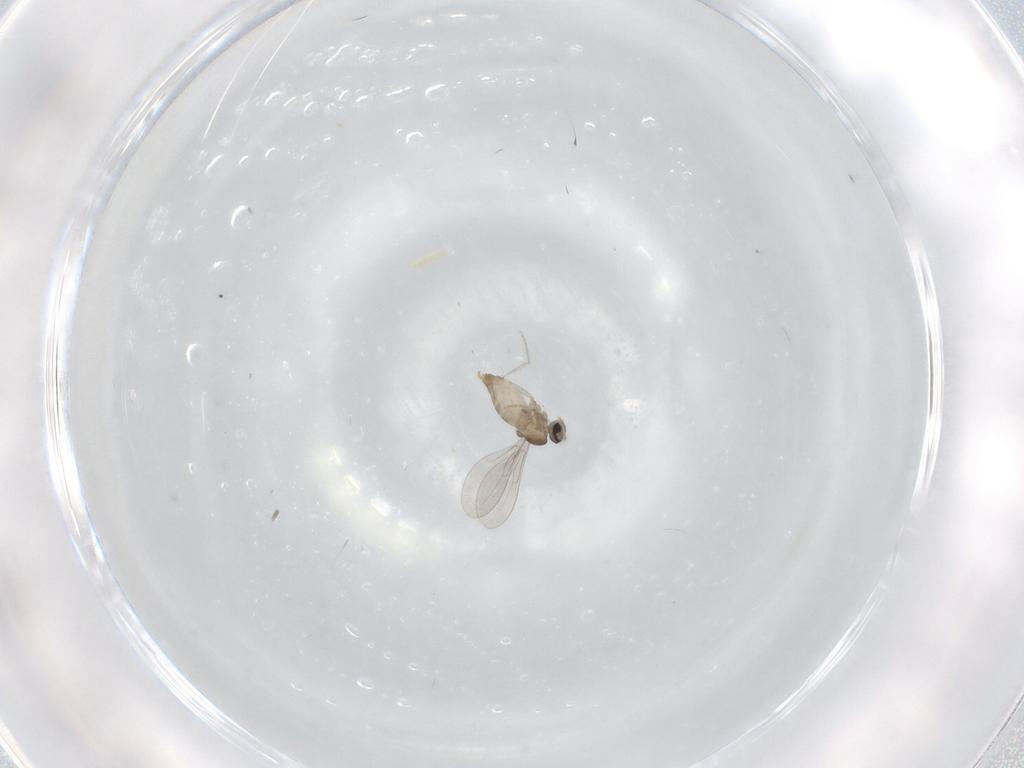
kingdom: Animalia
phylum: Arthropoda
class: Insecta
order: Diptera
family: Cecidomyiidae
